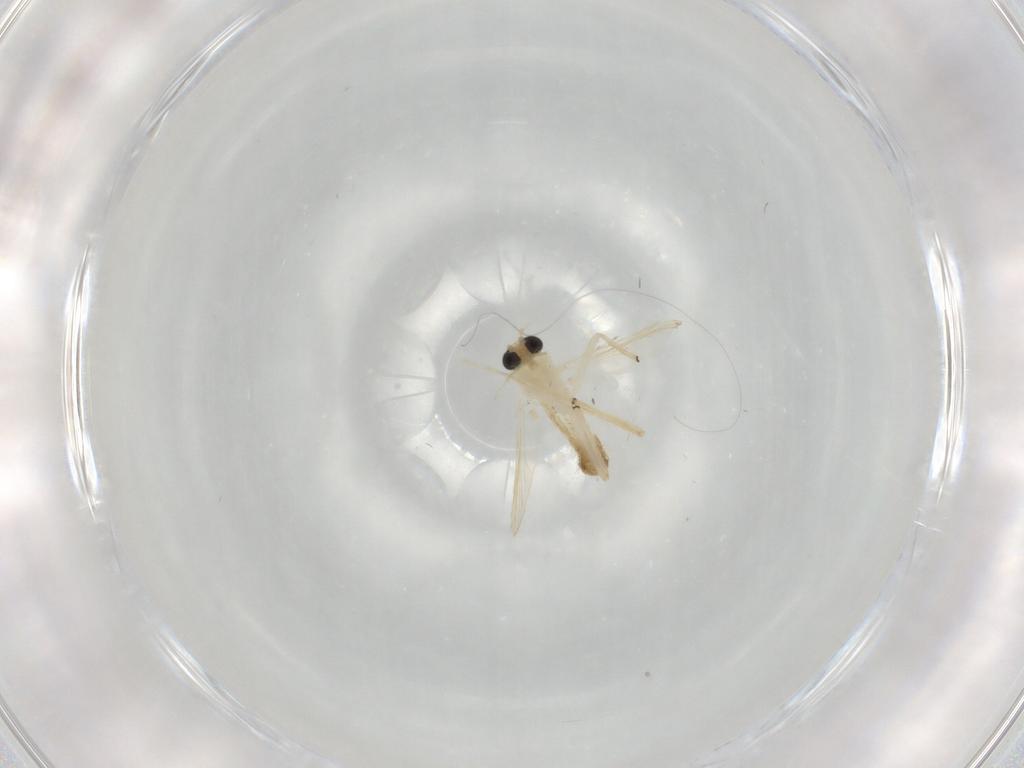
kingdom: Animalia
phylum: Arthropoda
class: Insecta
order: Diptera
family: Chironomidae
